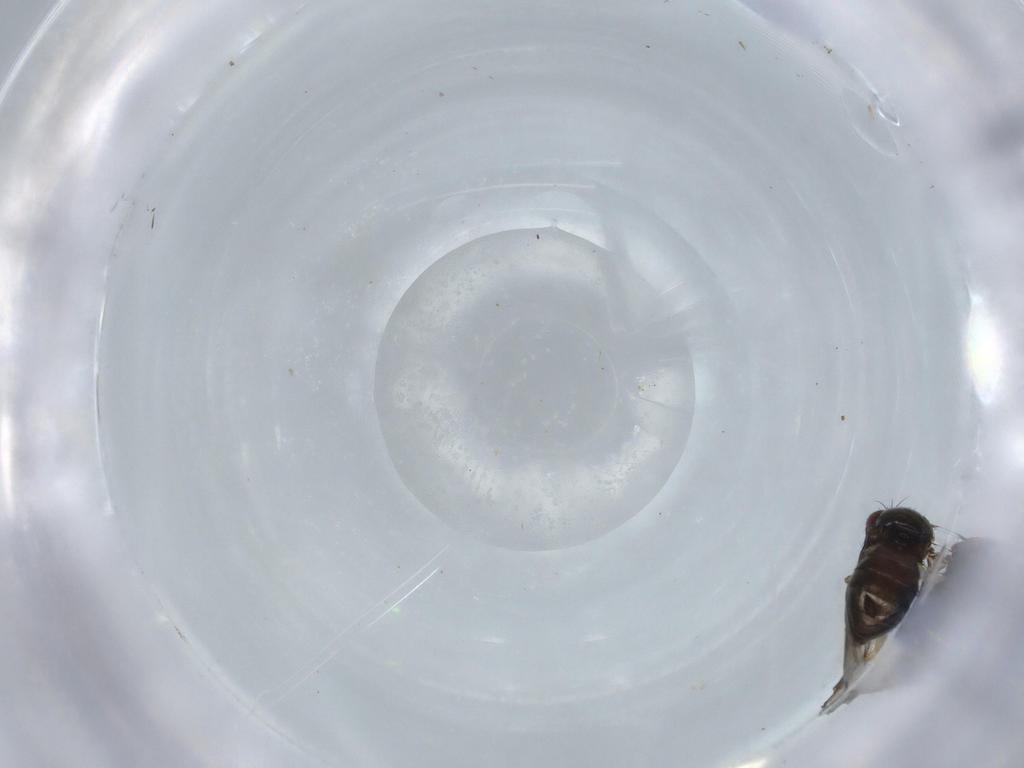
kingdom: Animalia
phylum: Arthropoda
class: Insecta
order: Diptera
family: Drosophilidae
